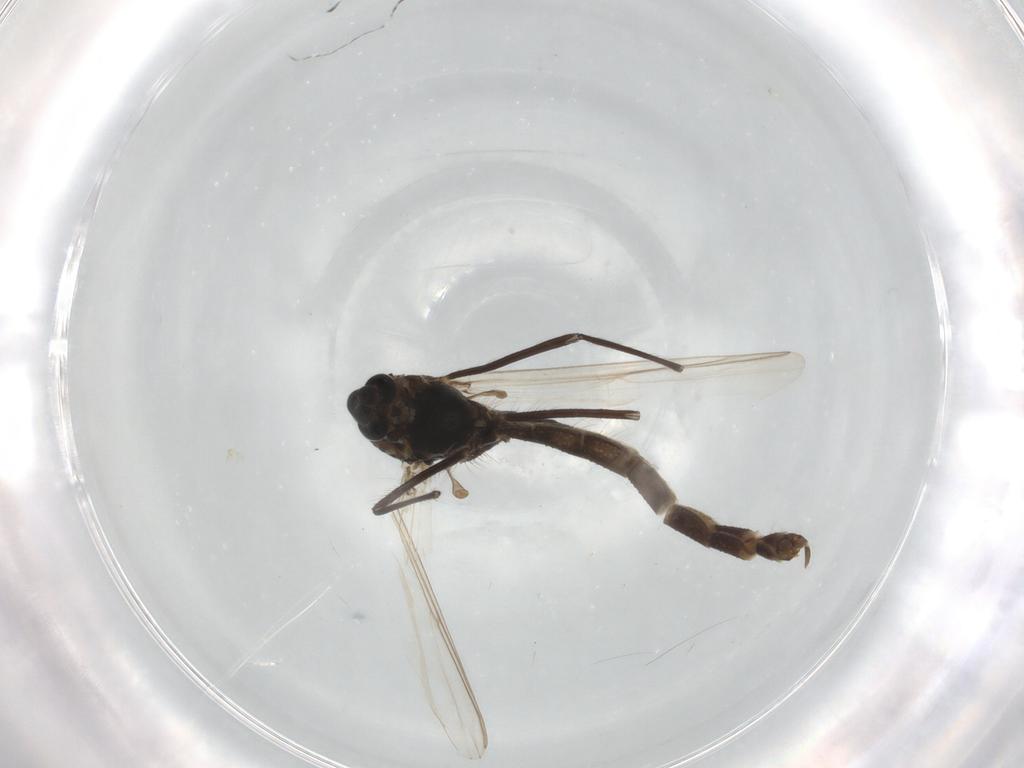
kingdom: Animalia
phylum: Arthropoda
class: Insecta
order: Diptera
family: Chironomidae
